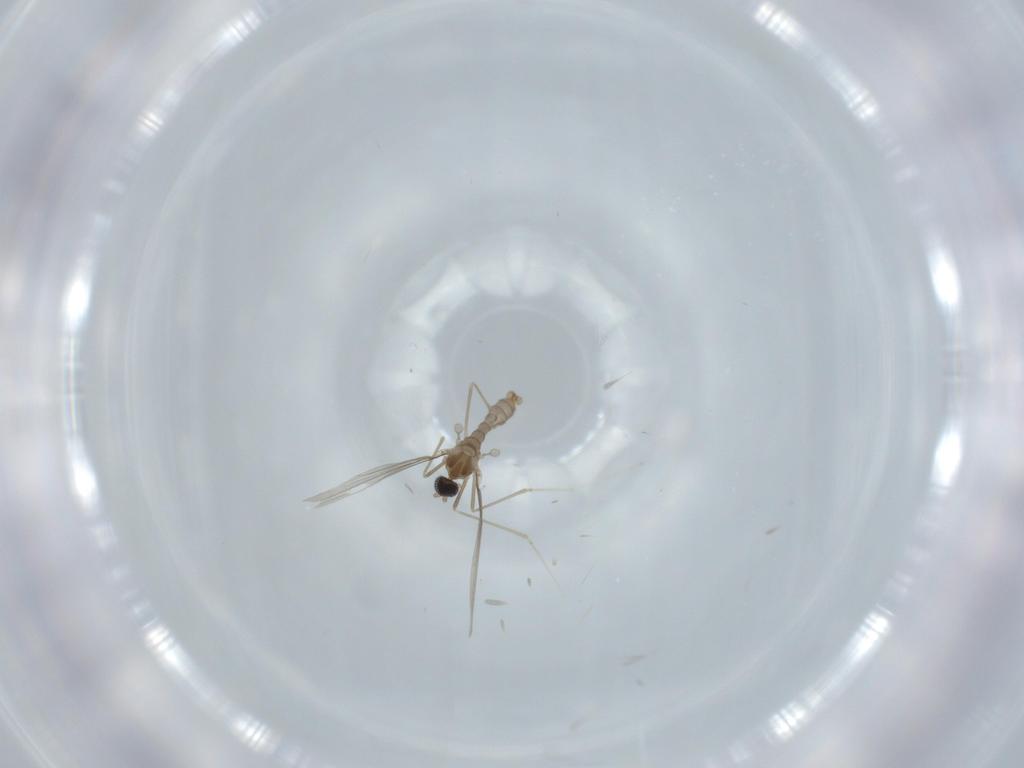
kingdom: Animalia
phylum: Arthropoda
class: Insecta
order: Diptera
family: Cecidomyiidae
